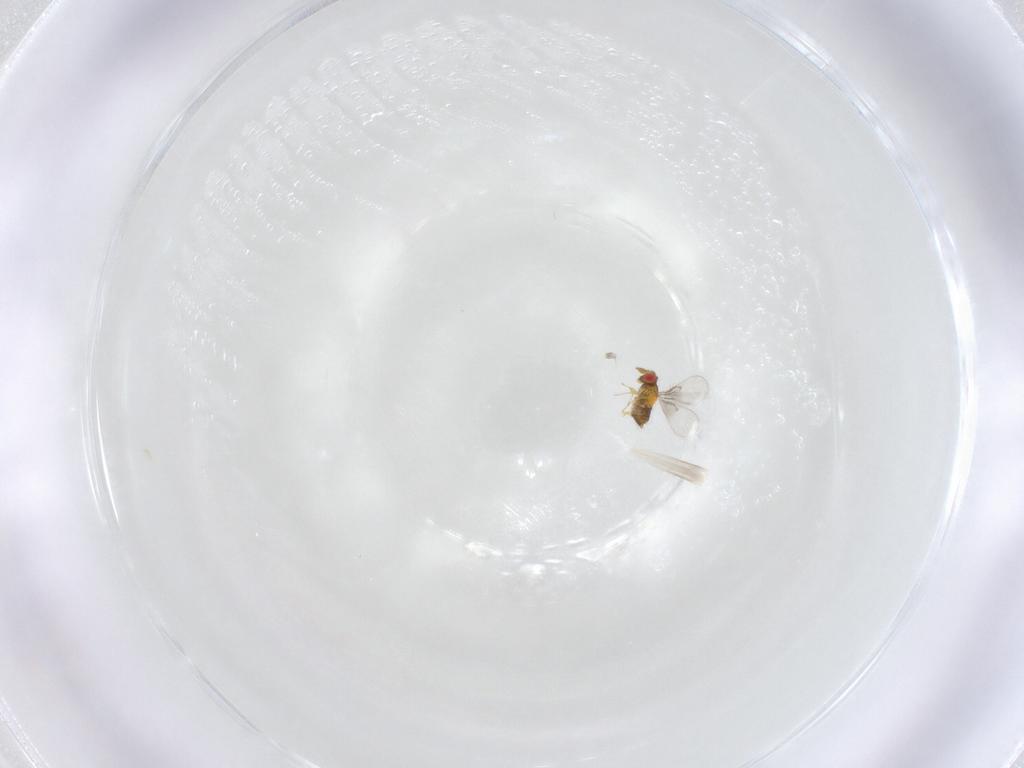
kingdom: Animalia
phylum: Arthropoda
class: Insecta
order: Hymenoptera
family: Trichogrammatidae
